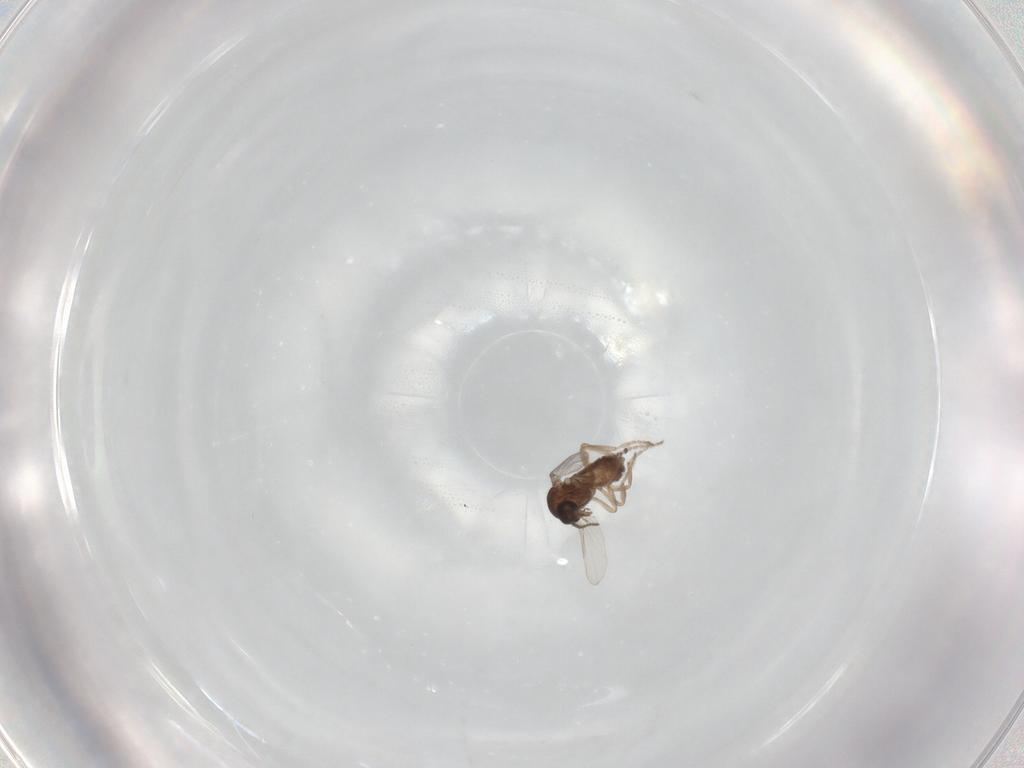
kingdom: Animalia
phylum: Arthropoda
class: Insecta
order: Diptera
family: Ceratopogonidae
